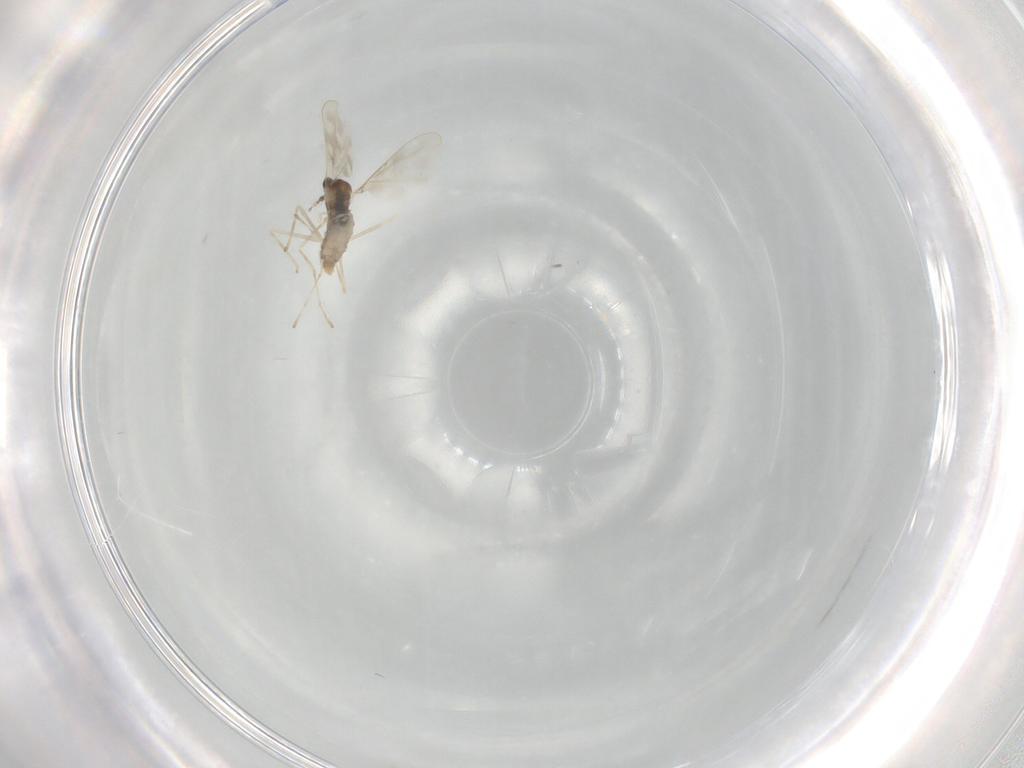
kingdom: Animalia
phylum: Arthropoda
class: Insecta
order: Diptera
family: Cecidomyiidae
